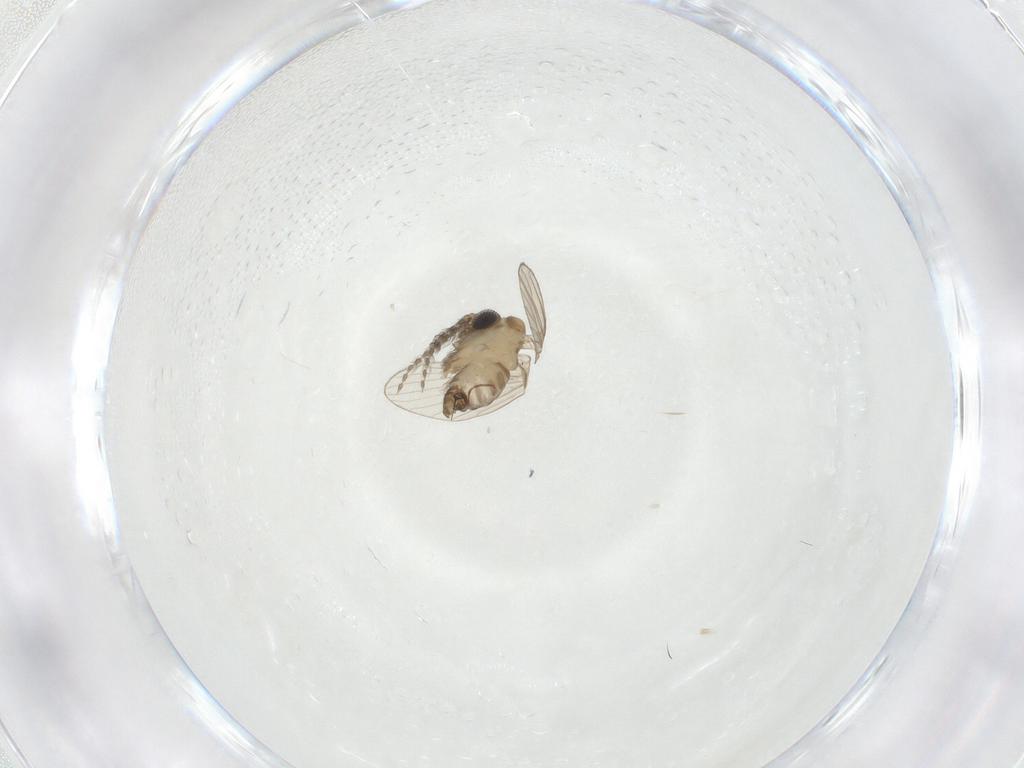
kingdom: Animalia
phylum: Arthropoda
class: Insecta
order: Diptera
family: Psychodidae
